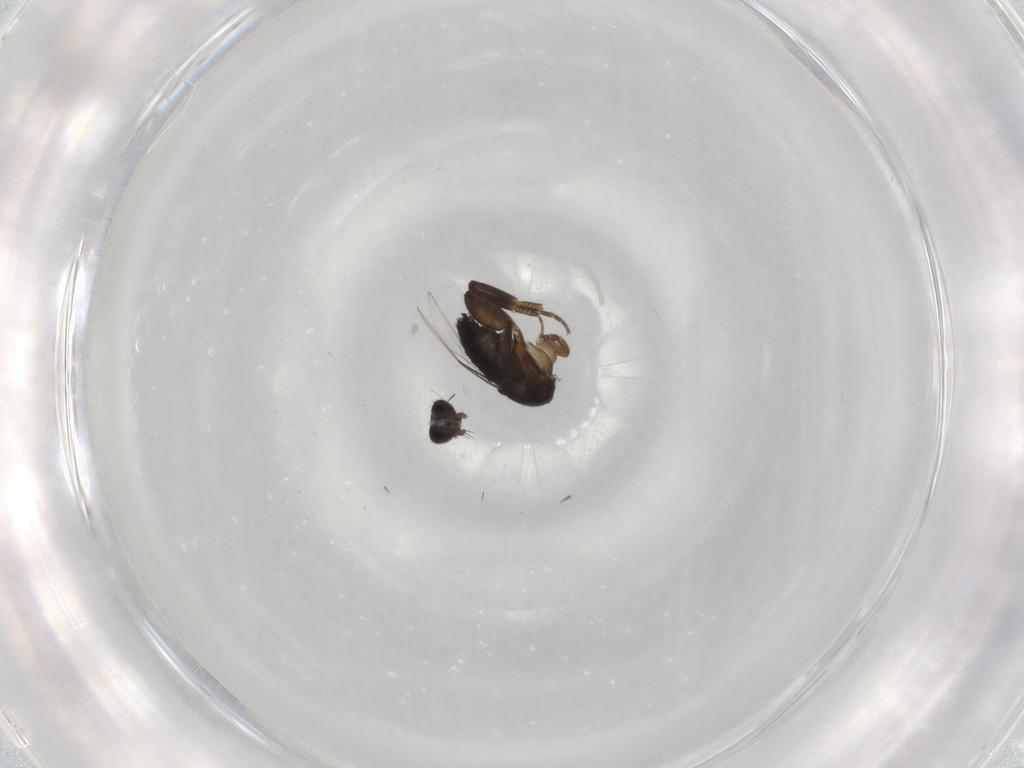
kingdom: Animalia
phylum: Arthropoda
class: Insecta
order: Diptera
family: Phoridae
